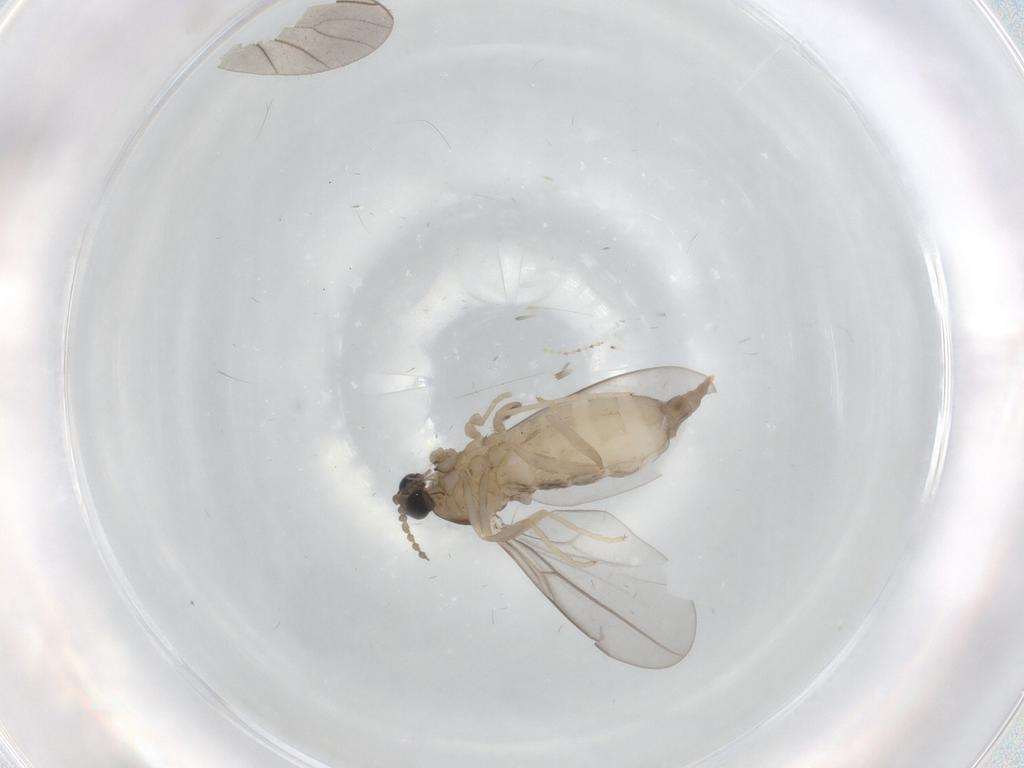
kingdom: Animalia
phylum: Arthropoda
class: Insecta
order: Diptera
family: Cecidomyiidae
